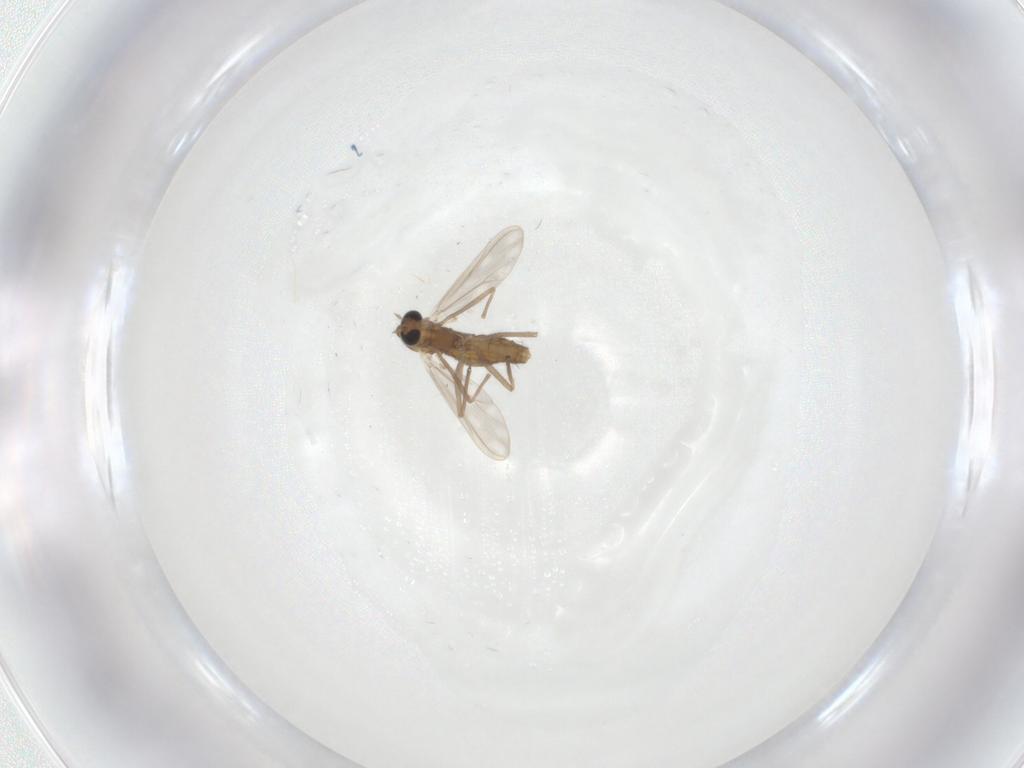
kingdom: Animalia
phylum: Arthropoda
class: Insecta
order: Diptera
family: Chironomidae
